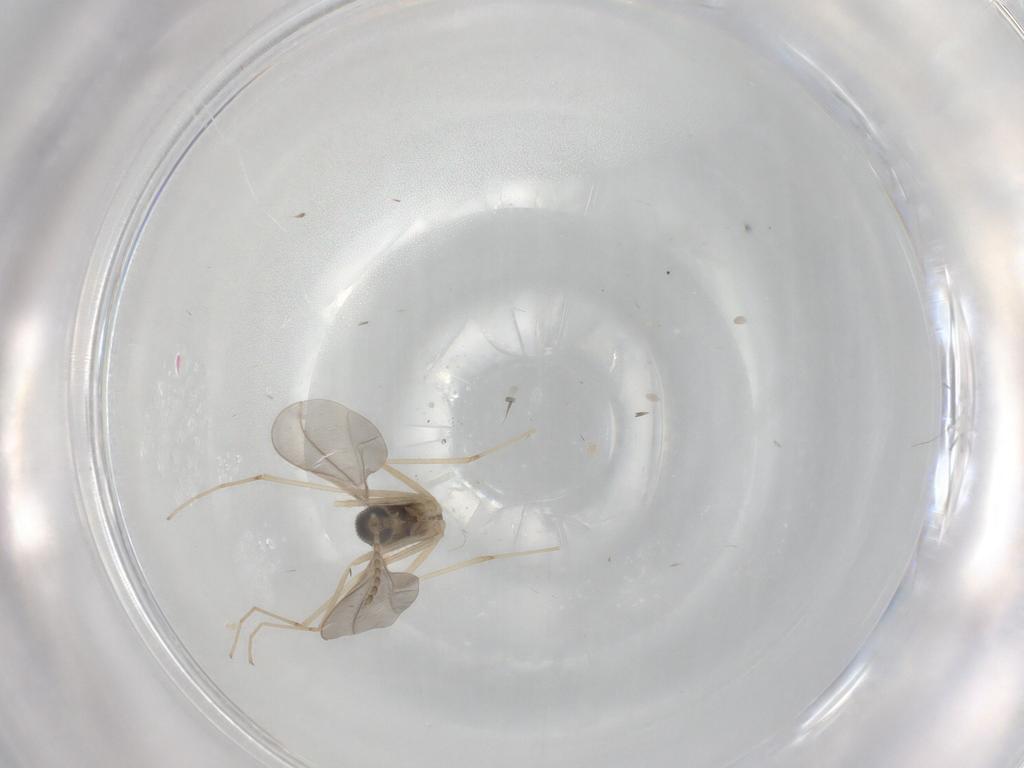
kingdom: Animalia
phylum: Arthropoda
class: Insecta
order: Diptera
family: Cecidomyiidae
